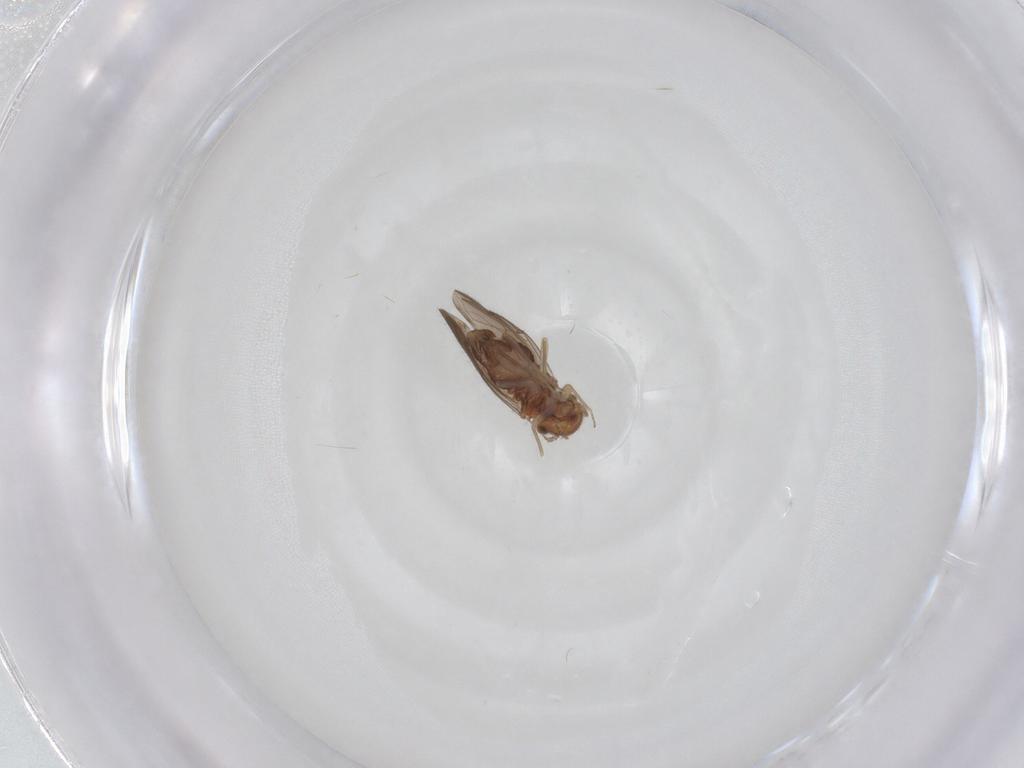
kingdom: Animalia
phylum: Arthropoda
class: Insecta
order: Psocodea
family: Ectopsocidae
